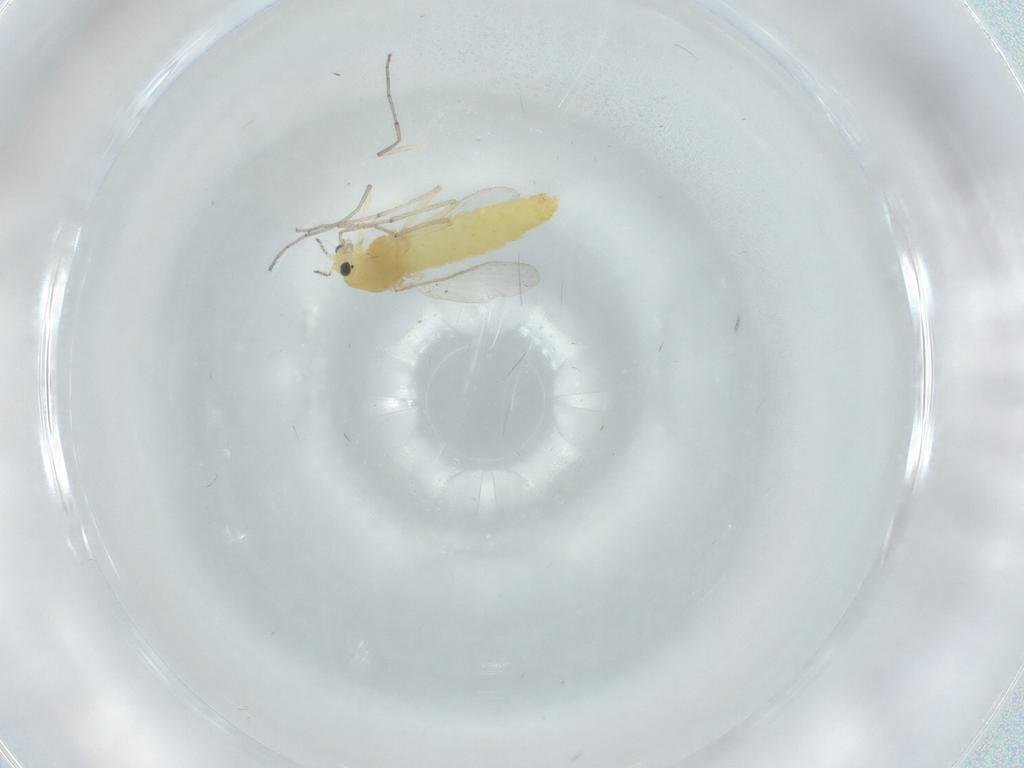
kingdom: Animalia
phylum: Arthropoda
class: Insecta
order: Diptera
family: Chironomidae
